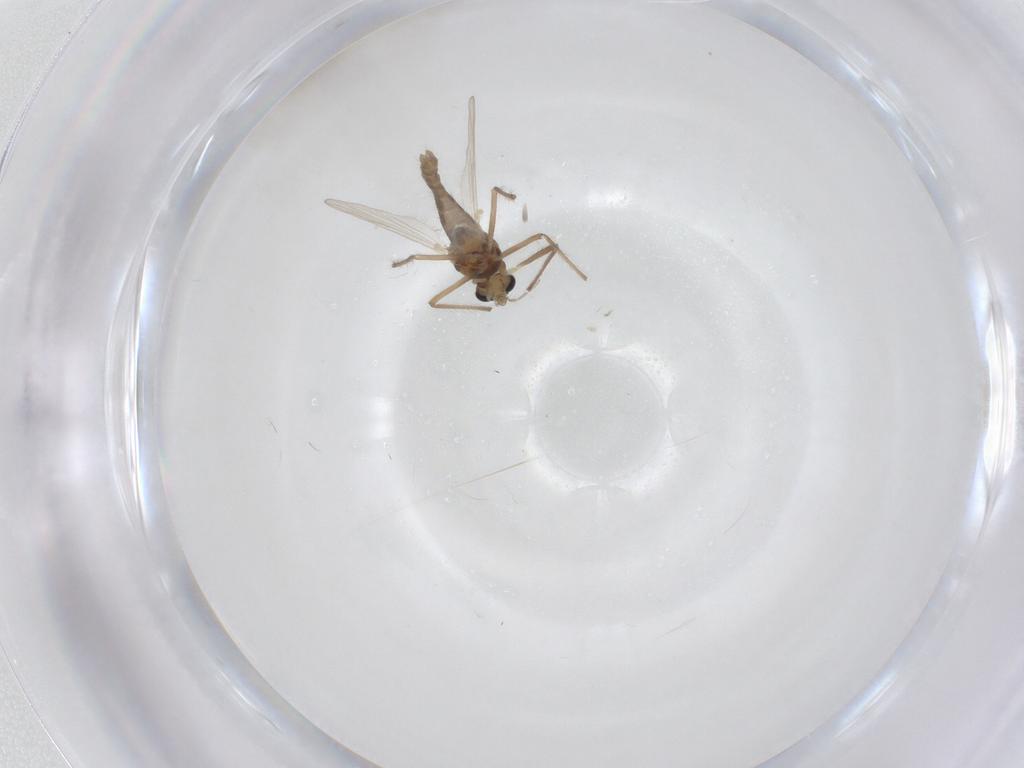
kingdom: Animalia
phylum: Arthropoda
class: Insecta
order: Diptera
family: Chironomidae
